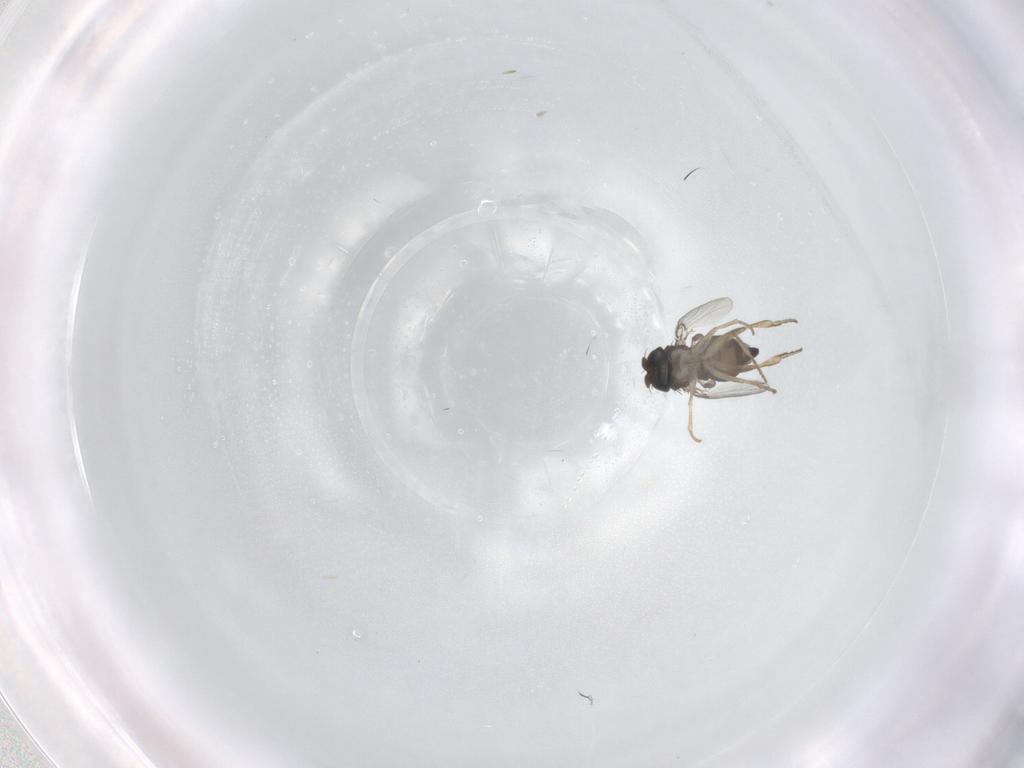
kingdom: Animalia
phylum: Arthropoda
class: Insecta
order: Diptera
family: Phoridae
